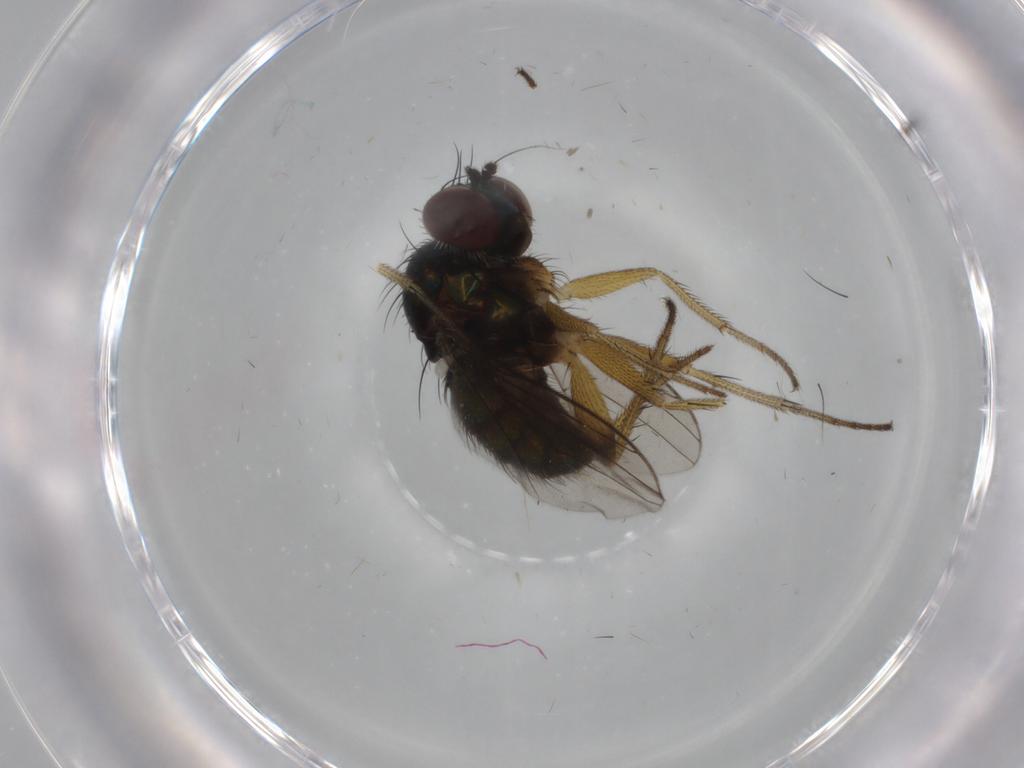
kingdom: Animalia
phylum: Arthropoda
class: Insecta
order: Diptera
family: Dolichopodidae
